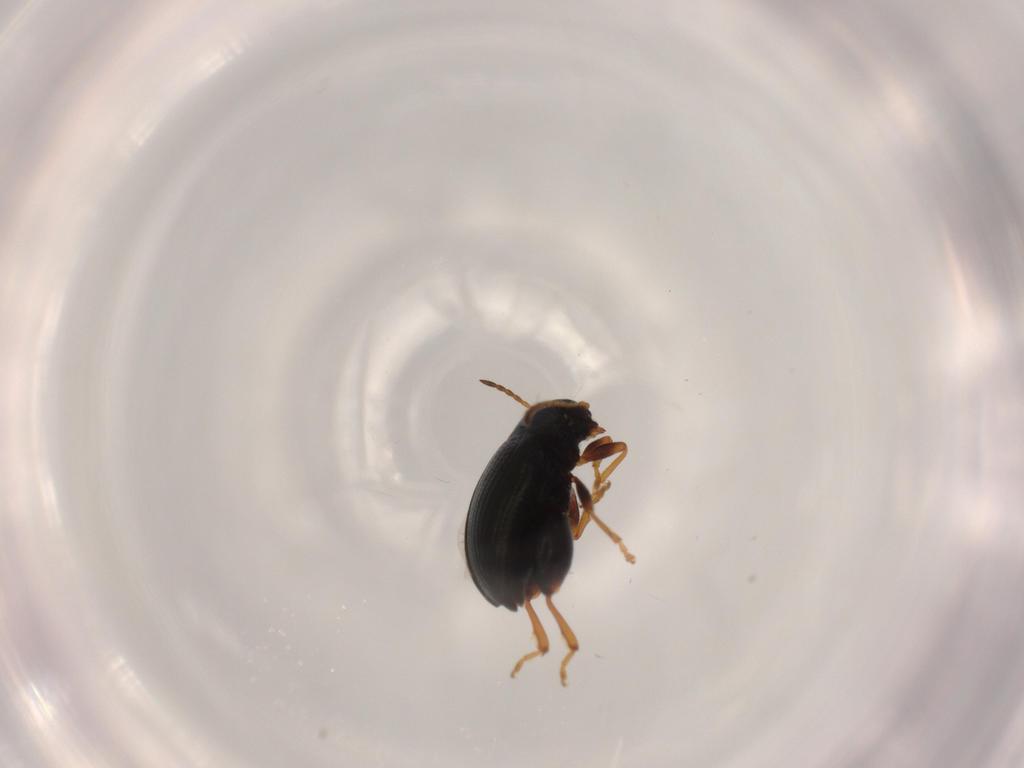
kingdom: Animalia
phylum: Arthropoda
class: Insecta
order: Coleoptera
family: Chrysomelidae
